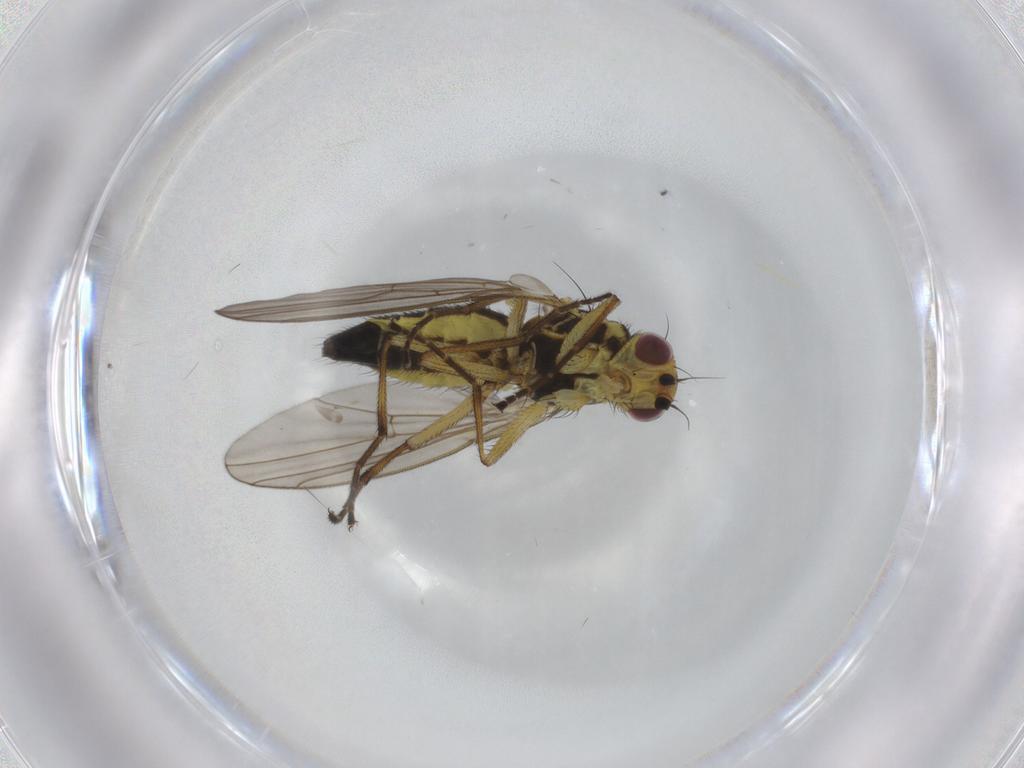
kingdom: Animalia
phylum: Arthropoda
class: Insecta
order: Diptera
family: Agromyzidae
